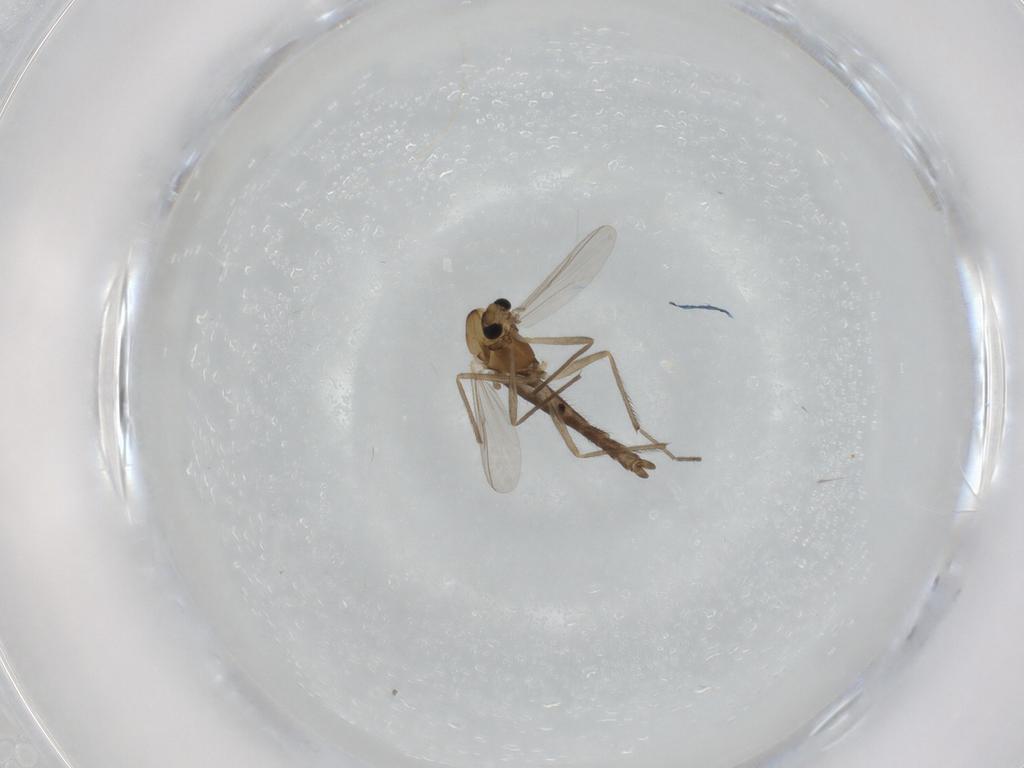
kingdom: Animalia
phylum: Arthropoda
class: Insecta
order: Diptera
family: Chironomidae
